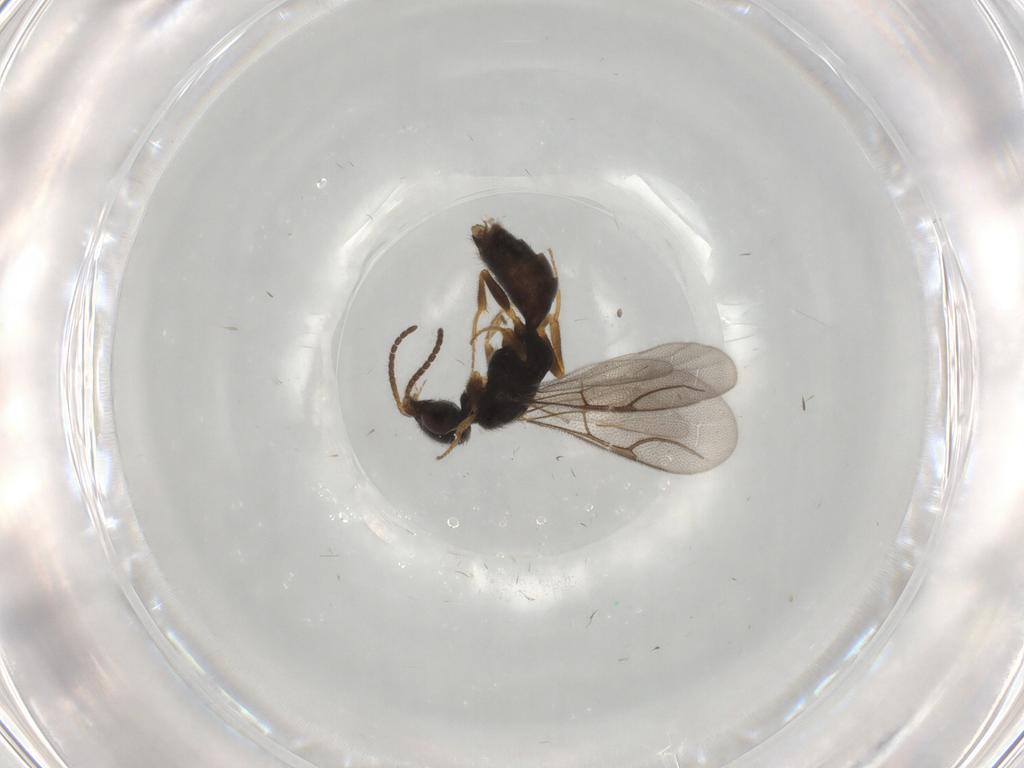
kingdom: Animalia
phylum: Arthropoda
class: Insecta
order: Hymenoptera
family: Bethylidae
